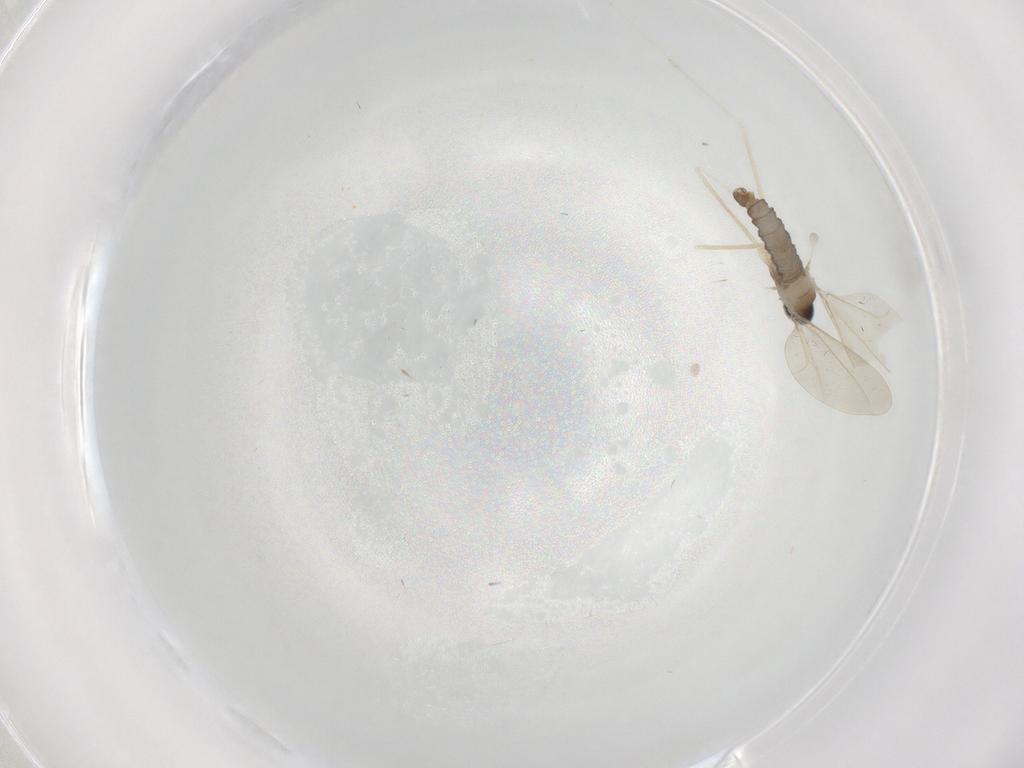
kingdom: Animalia
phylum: Arthropoda
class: Insecta
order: Diptera
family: Cecidomyiidae
